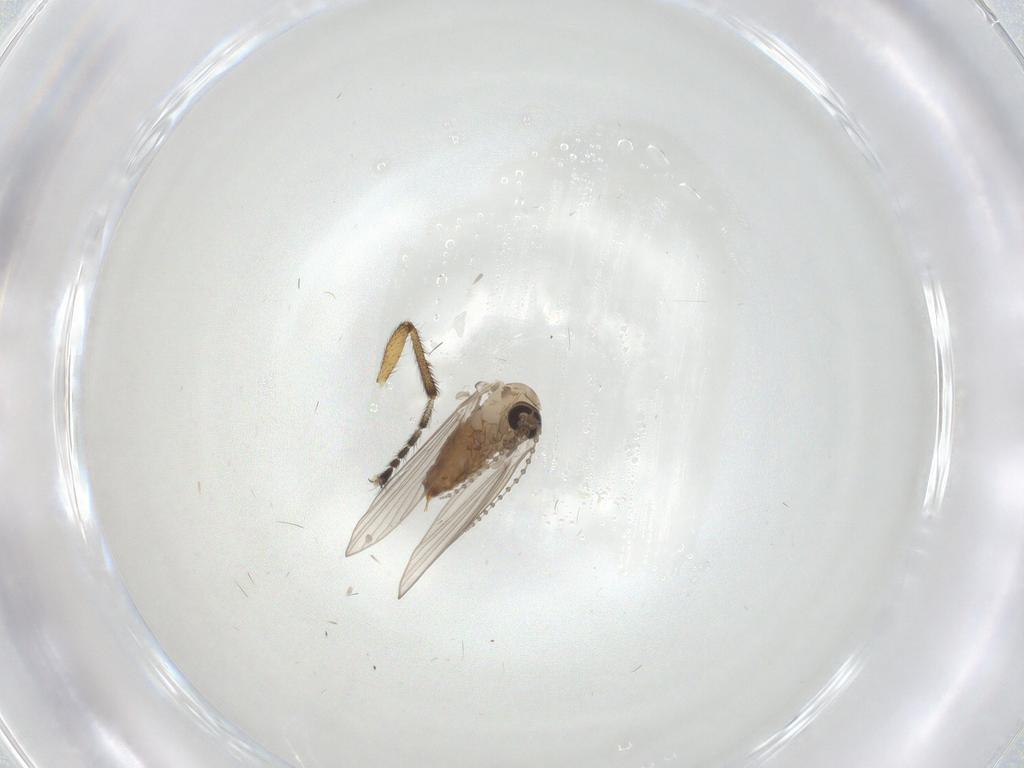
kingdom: Animalia
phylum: Arthropoda
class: Insecta
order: Diptera
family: Psychodidae
